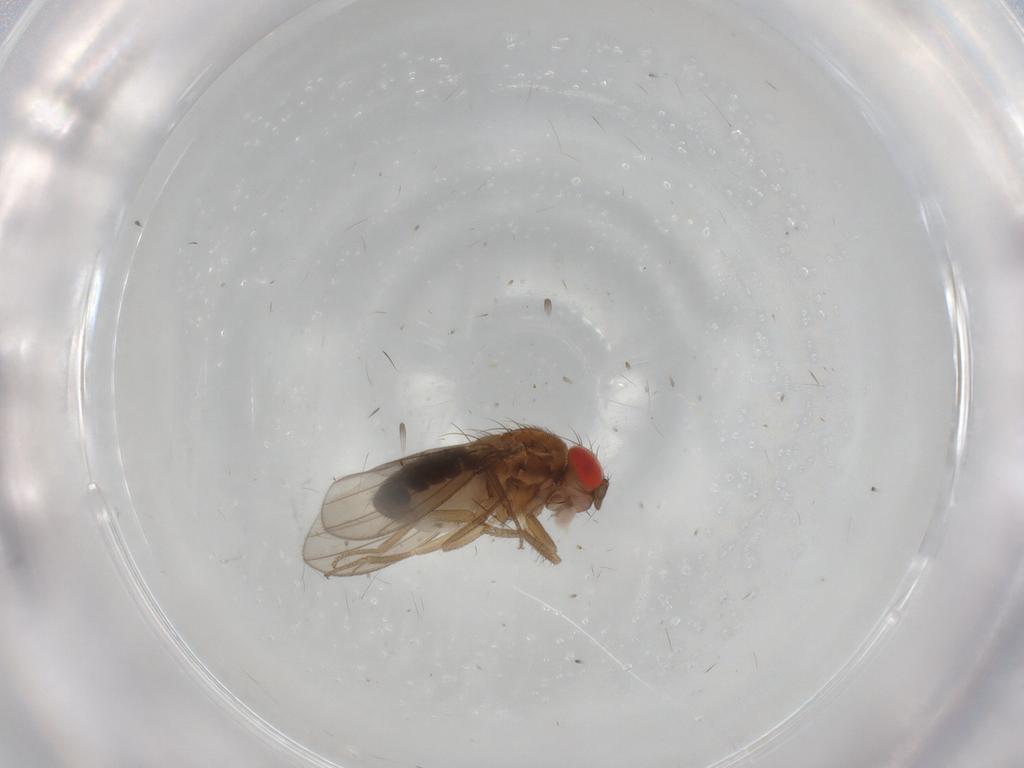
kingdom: Animalia
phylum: Arthropoda
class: Insecta
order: Diptera
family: Drosophilidae
